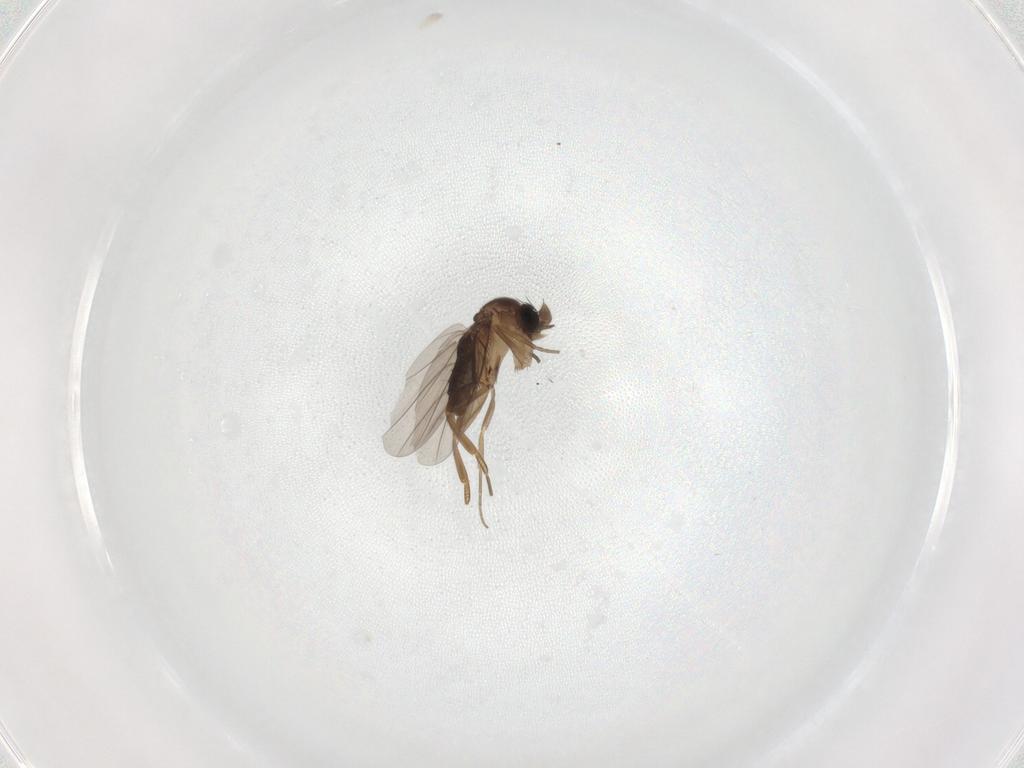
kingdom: Animalia
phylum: Arthropoda
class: Insecta
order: Diptera
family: Phoridae
